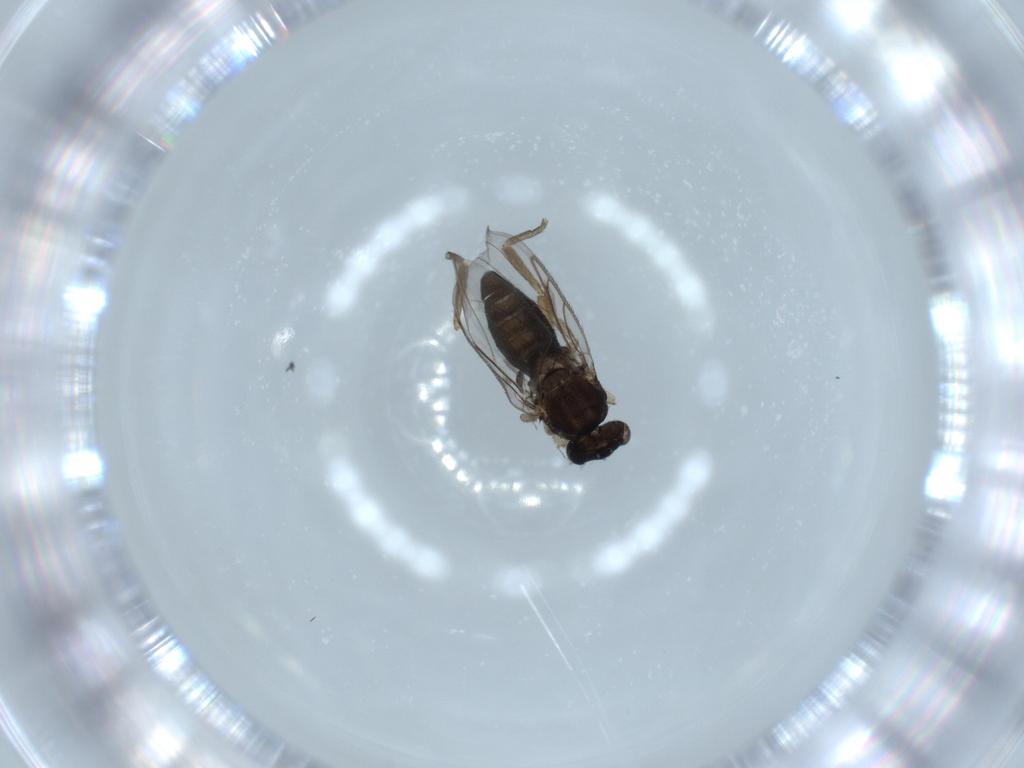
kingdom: Animalia
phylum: Arthropoda
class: Insecta
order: Diptera
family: Phoridae
